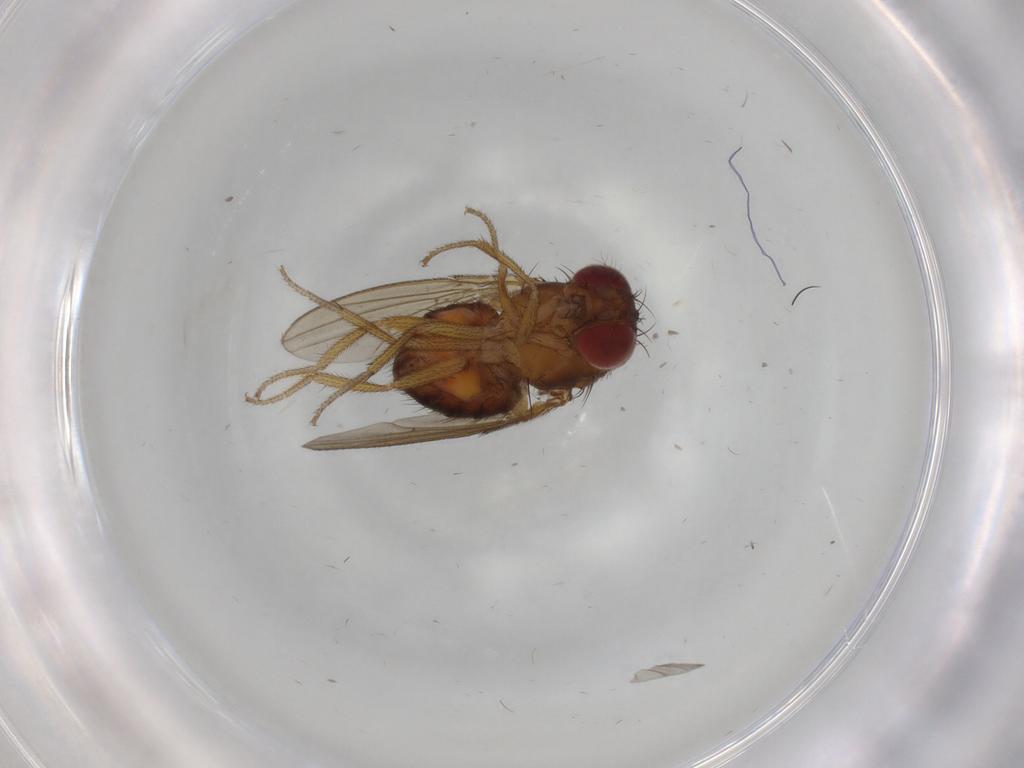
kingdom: Animalia
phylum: Arthropoda
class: Insecta
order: Diptera
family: Drosophilidae
